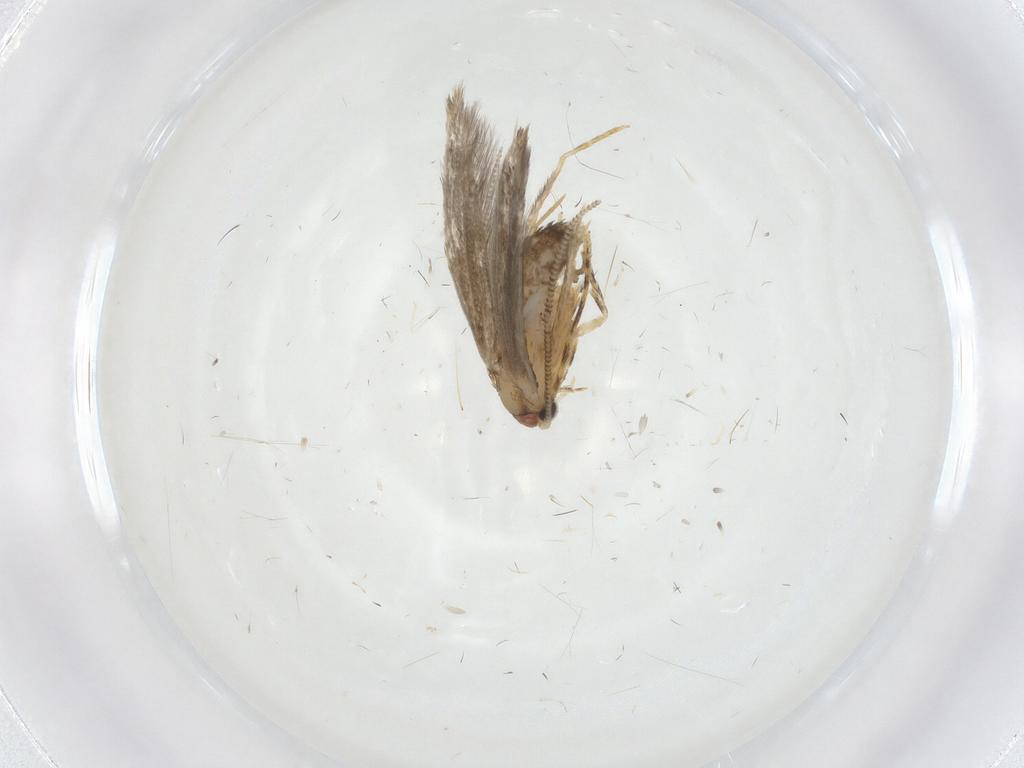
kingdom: Animalia
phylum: Arthropoda
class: Insecta
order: Lepidoptera
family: Tineidae
